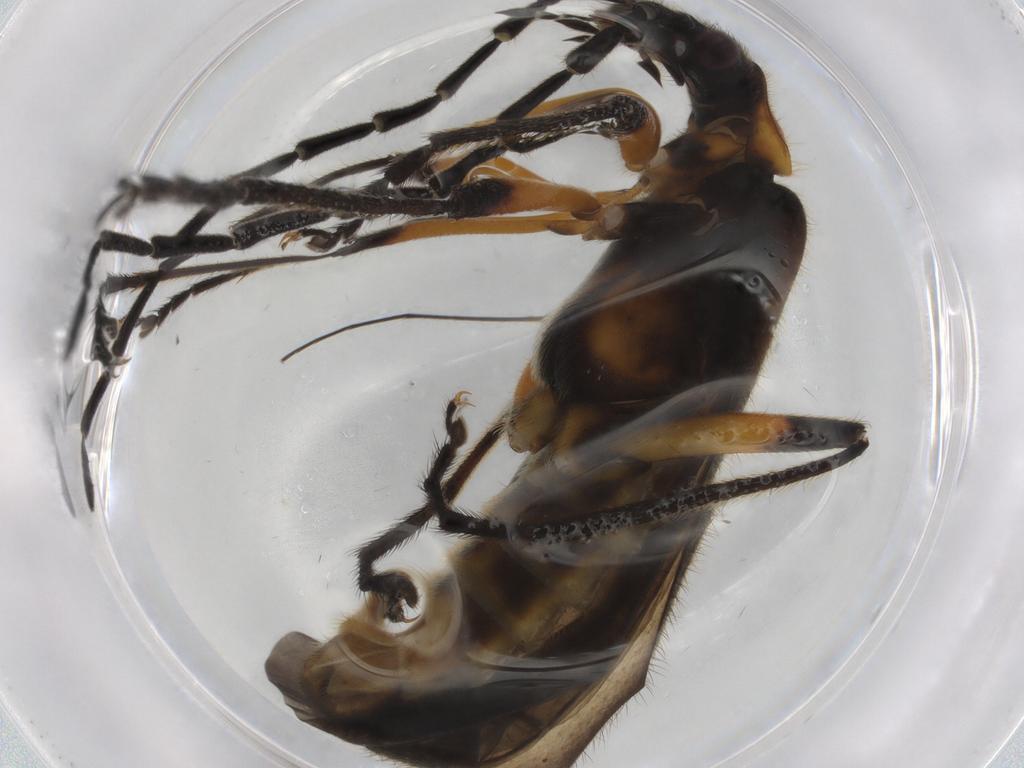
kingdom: Animalia
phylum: Arthropoda
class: Insecta
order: Coleoptera
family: Cantharidae
